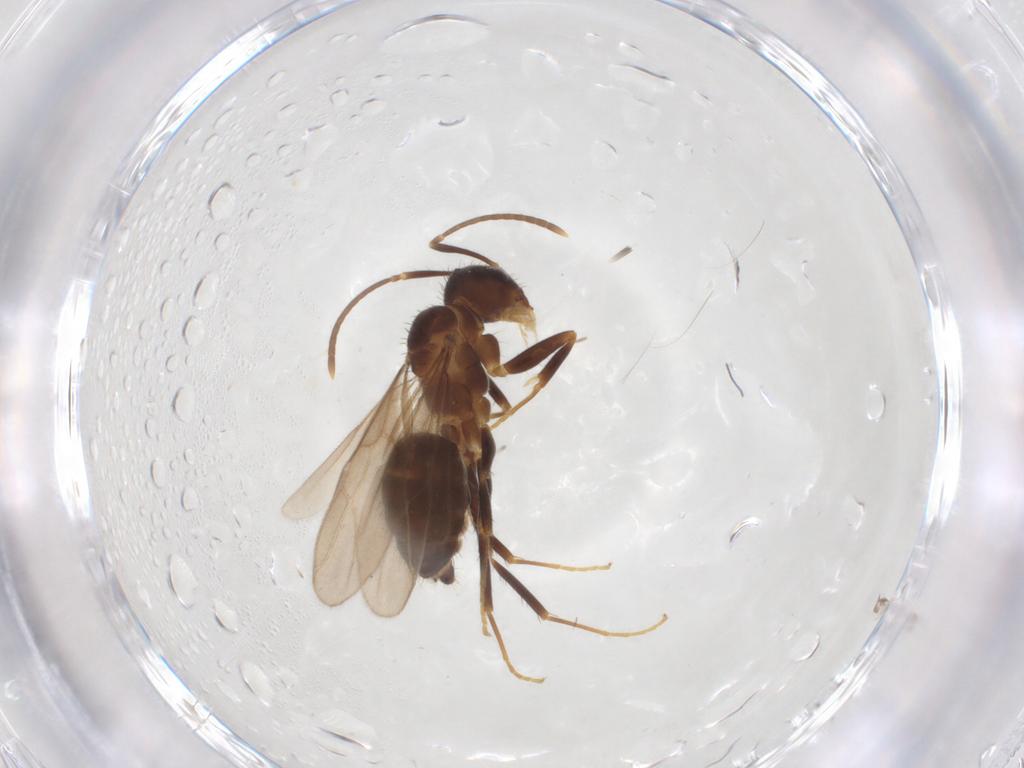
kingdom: Animalia
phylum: Arthropoda
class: Insecta
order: Hymenoptera
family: Formicidae
